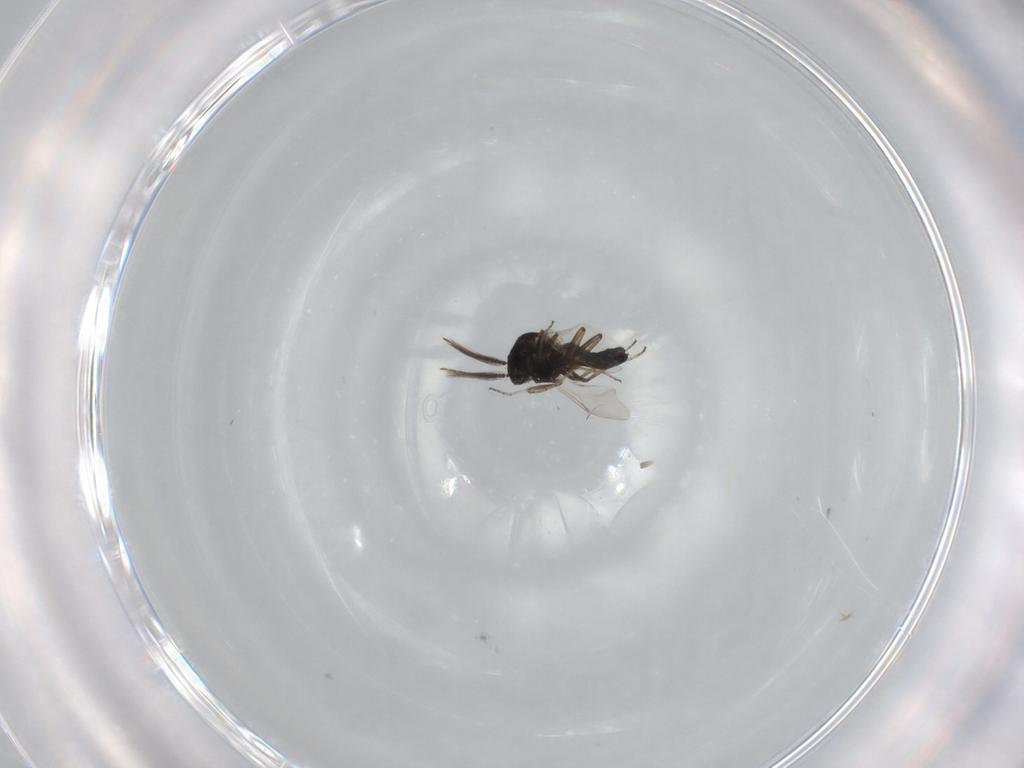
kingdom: Animalia
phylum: Arthropoda
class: Insecta
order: Diptera
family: Ceratopogonidae
